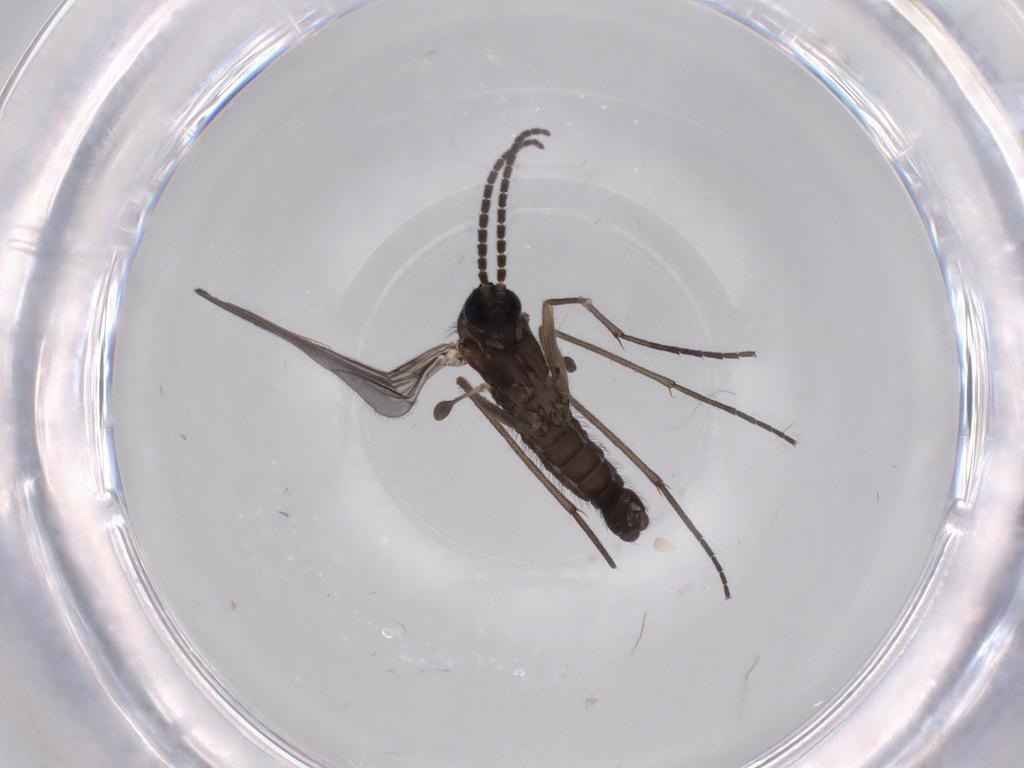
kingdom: Animalia
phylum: Arthropoda
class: Insecta
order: Diptera
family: Sciaridae
